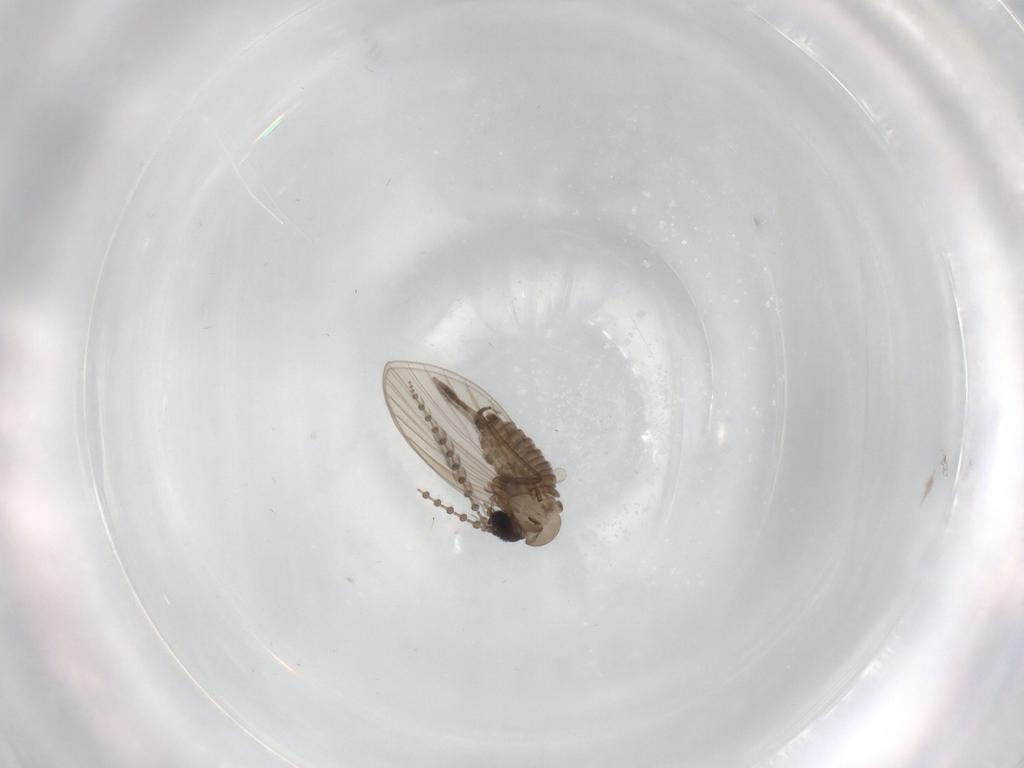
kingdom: Animalia
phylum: Arthropoda
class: Insecta
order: Diptera
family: Psychodidae
